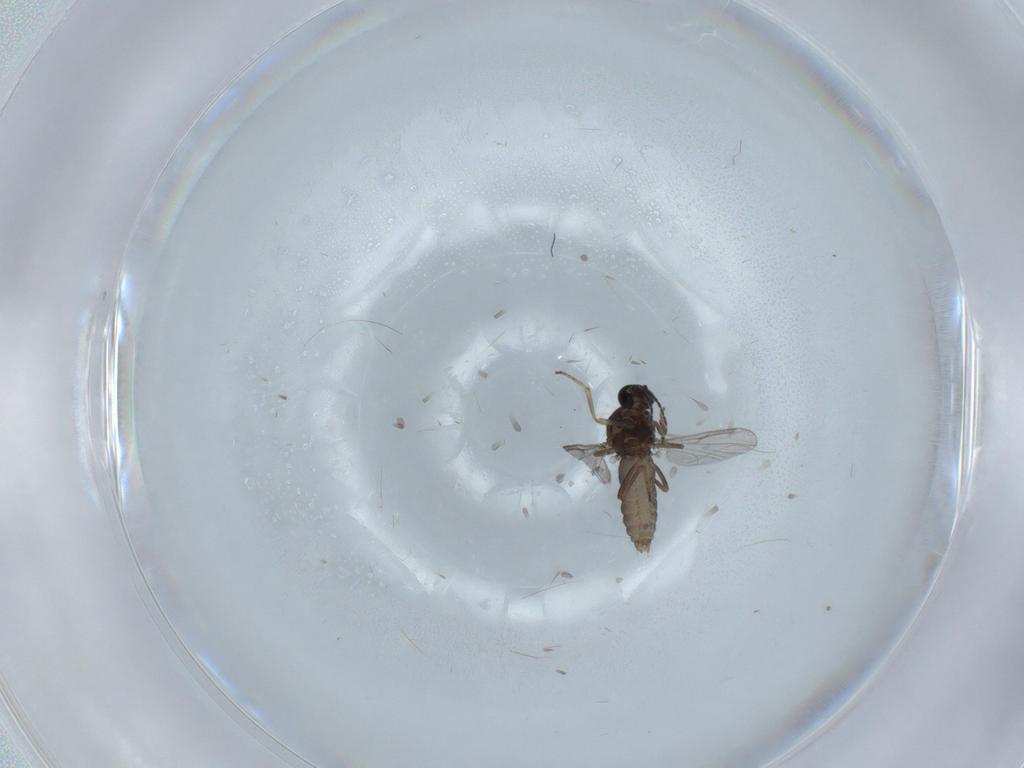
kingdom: Animalia
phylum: Arthropoda
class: Insecta
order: Diptera
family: Ceratopogonidae
